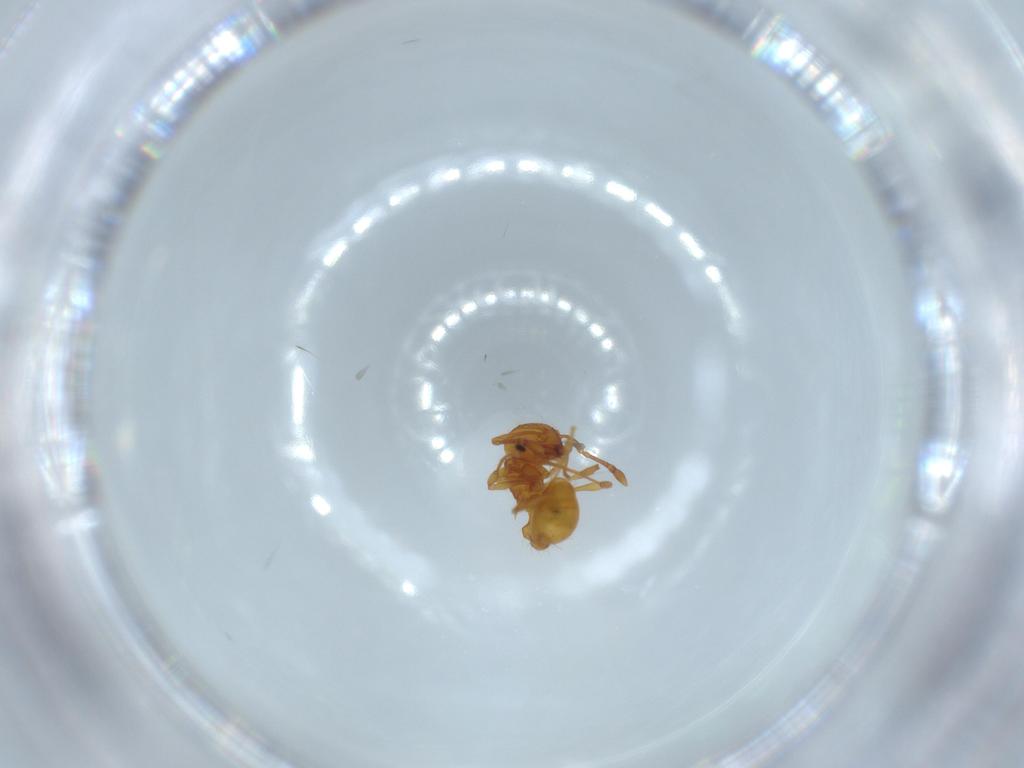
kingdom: Animalia
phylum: Arthropoda
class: Insecta
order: Hymenoptera
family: Formicidae
